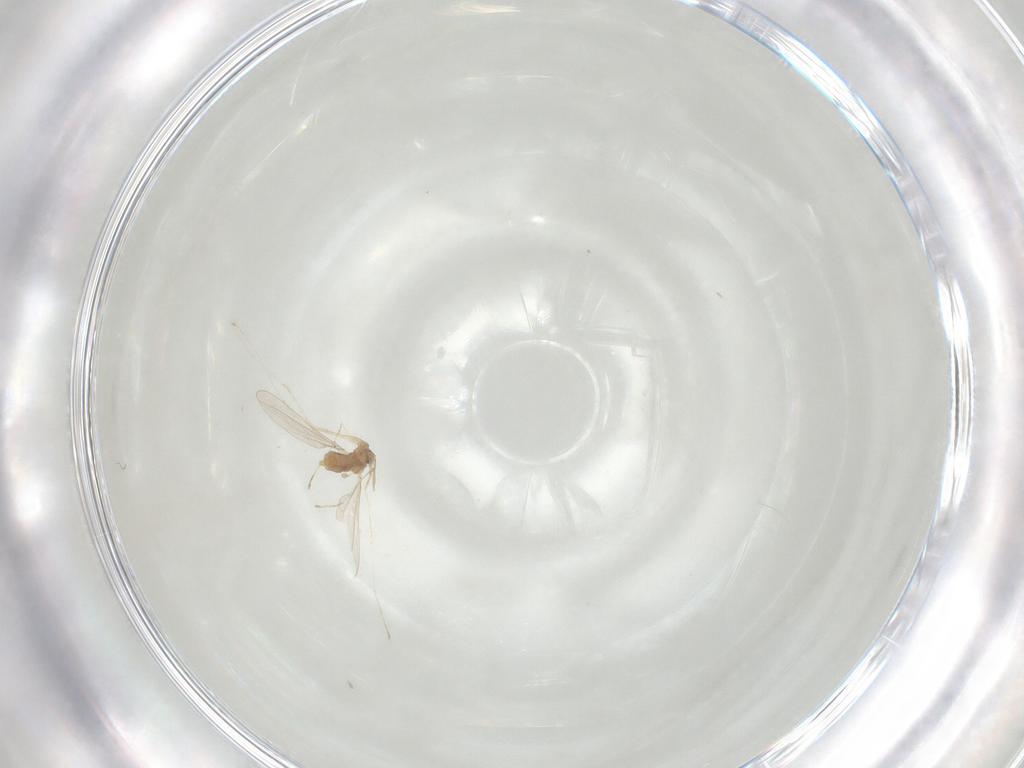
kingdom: Animalia
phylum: Arthropoda
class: Insecta
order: Diptera
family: Cecidomyiidae
